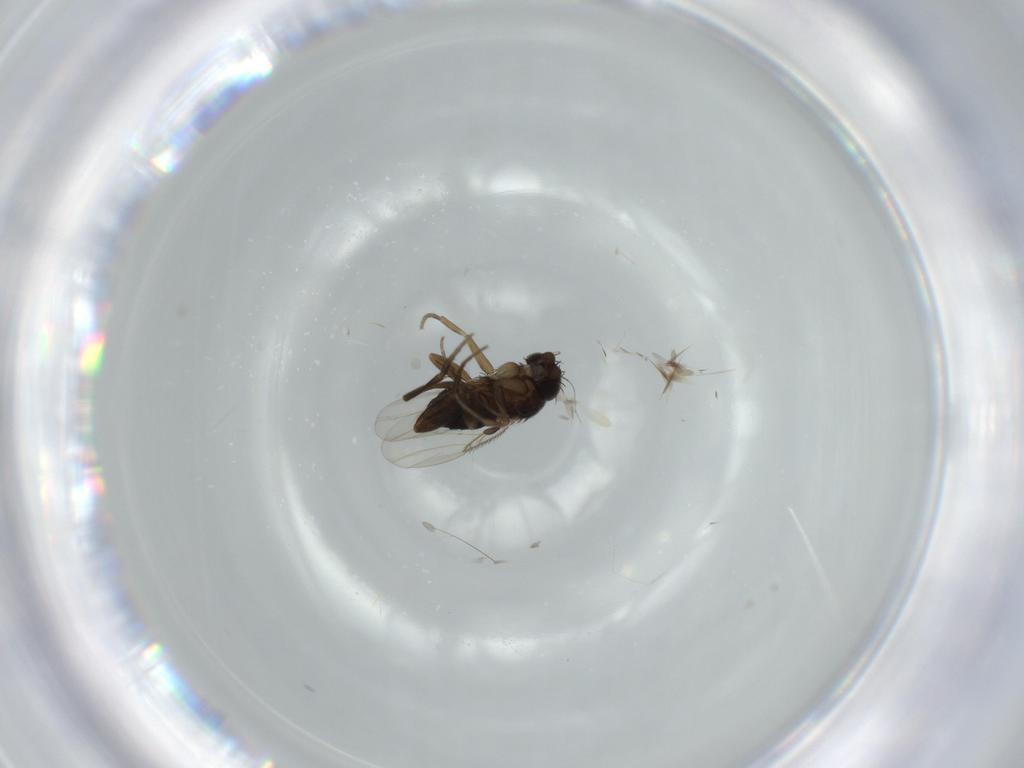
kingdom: Animalia
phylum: Arthropoda
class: Insecta
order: Diptera
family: Phoridae
